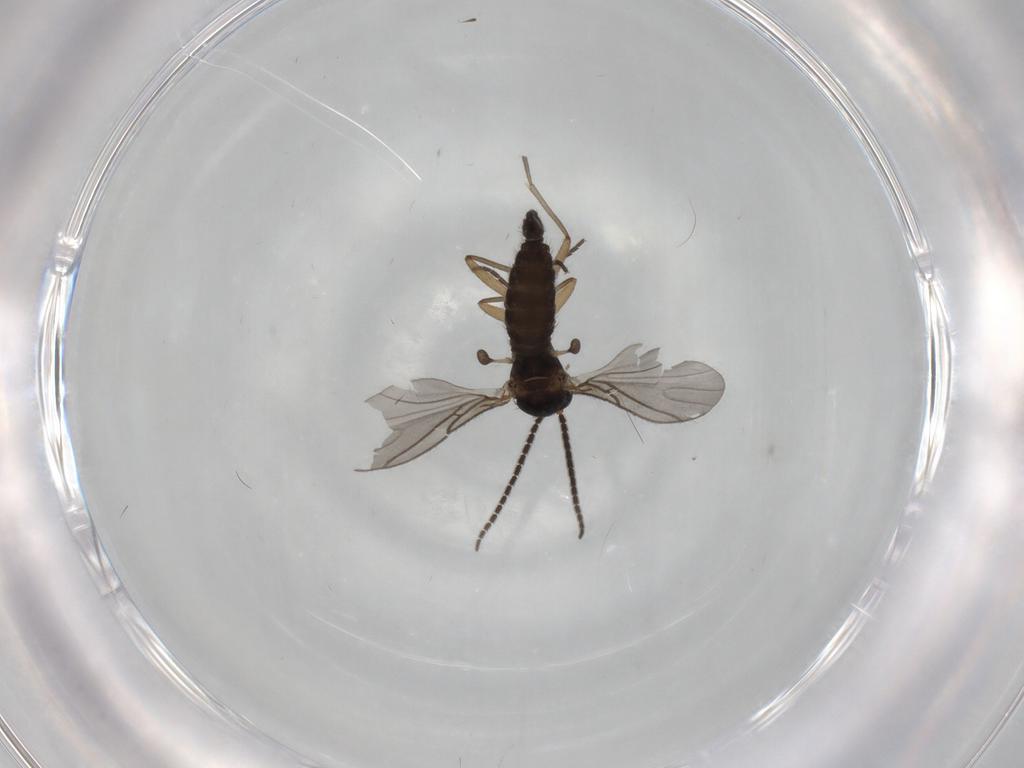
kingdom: Animalia
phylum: Arthropoda
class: Insecta
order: Diptera
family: Sciaridae
